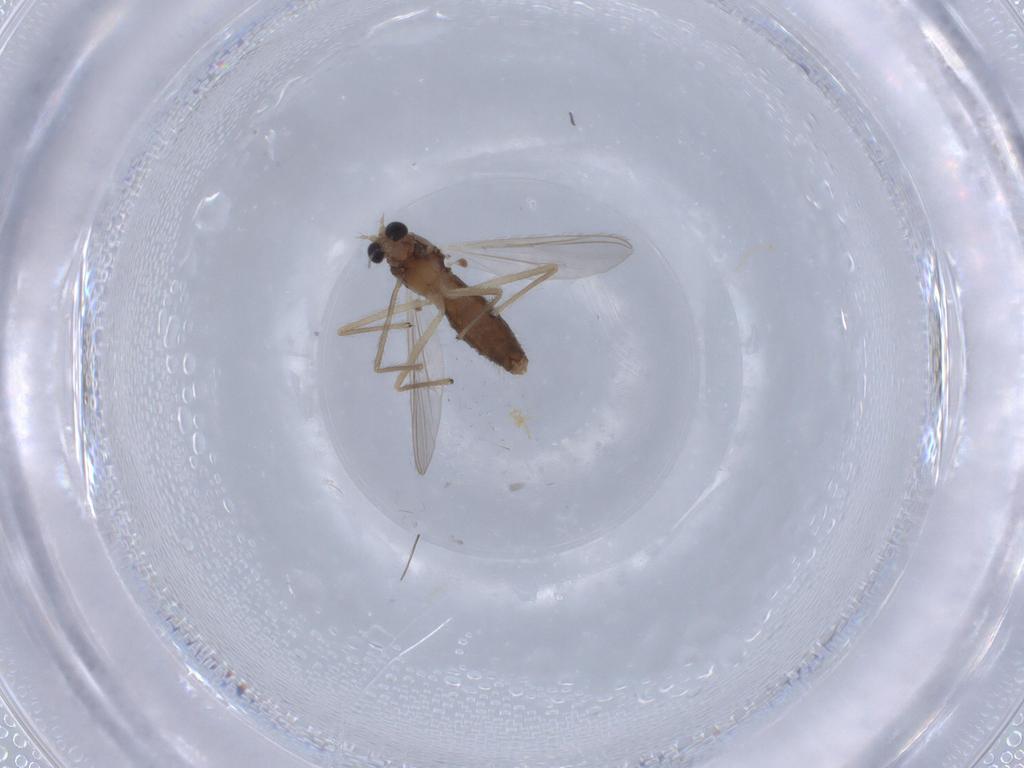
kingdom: Animalia
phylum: Arthropoda
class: Insecta
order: Diptera
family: Chironomidae
